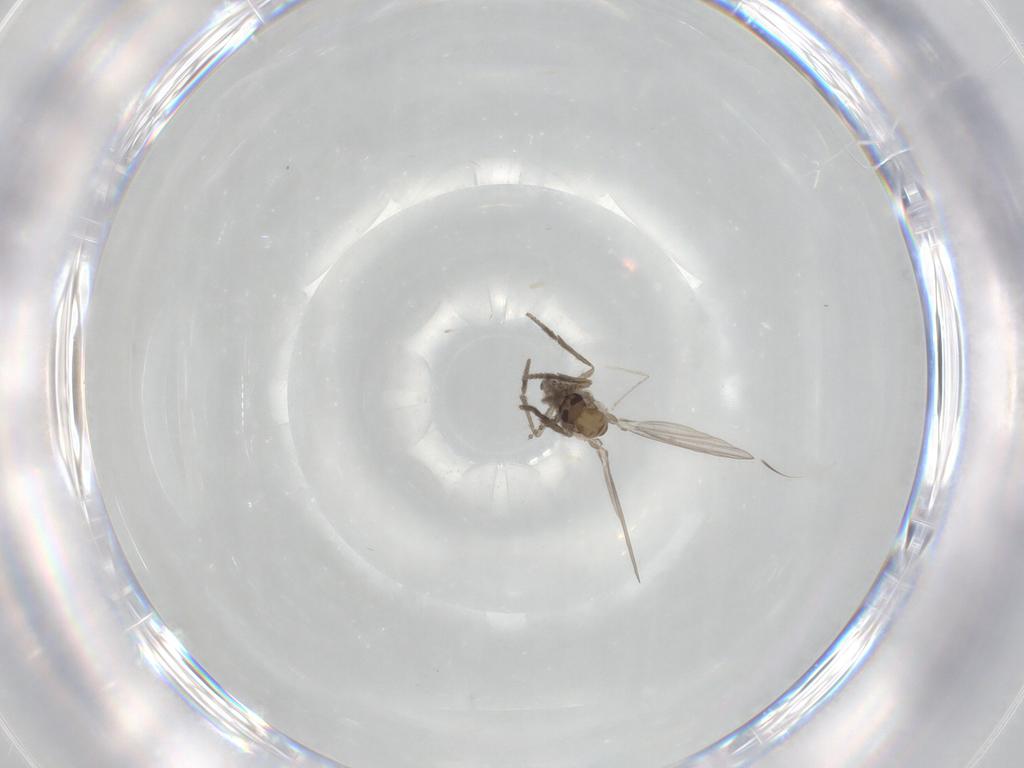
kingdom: Animalia
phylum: Arthropoda
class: Insecta
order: Diptera
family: Psychodidae
